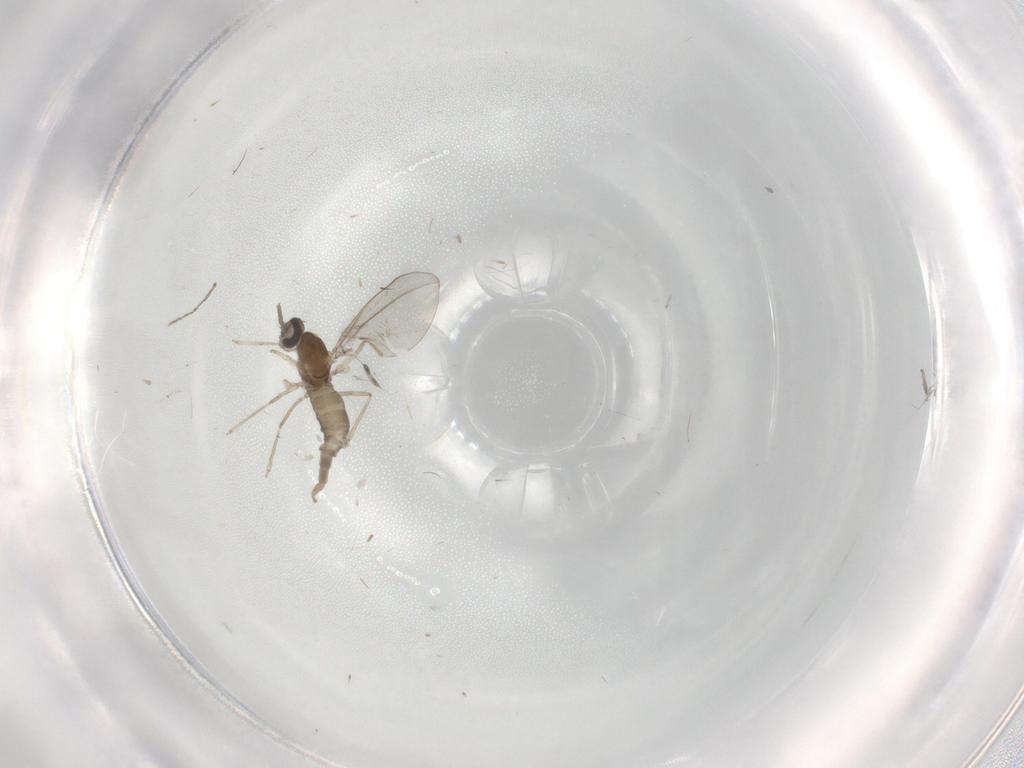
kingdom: Animalia
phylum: Arthropoda
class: Insecta
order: Diptera
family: Cecidomyiidae
